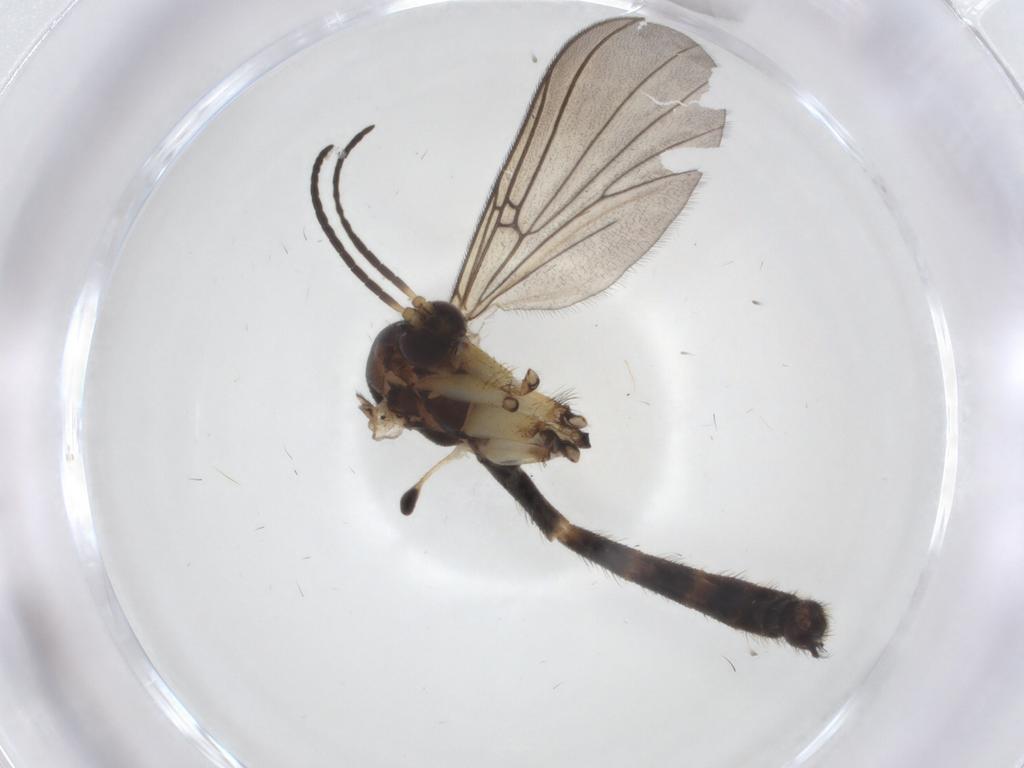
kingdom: Animalia
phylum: Arthropoda
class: Insecta
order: Diptera
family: Mycetophilidae
